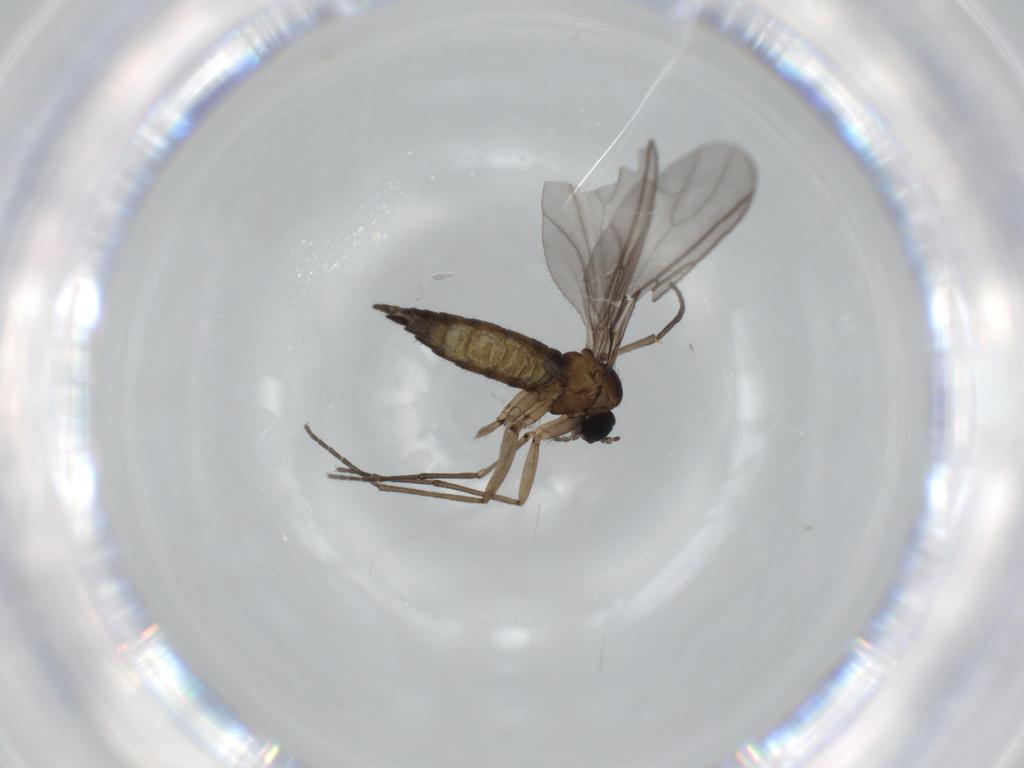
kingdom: Animalia
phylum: Arthropoda
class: Insecta
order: Diptera
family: Sciaridae
